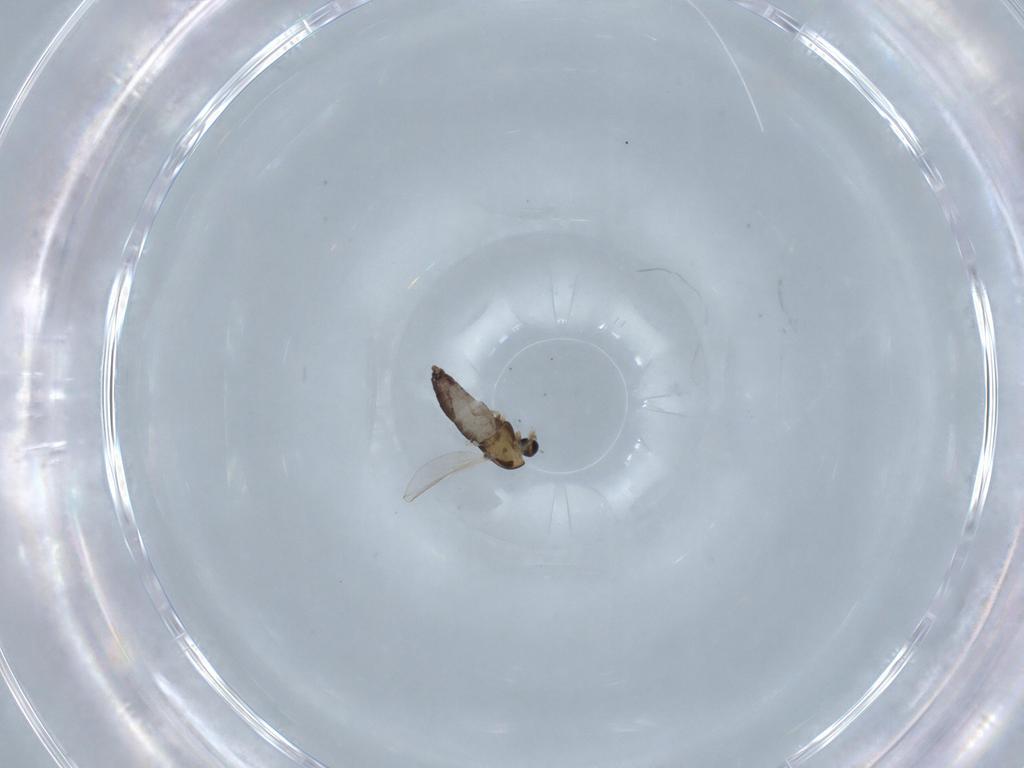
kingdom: Animalia
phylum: Arthropoda
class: Insecta
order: Diptera
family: Chironomidae
